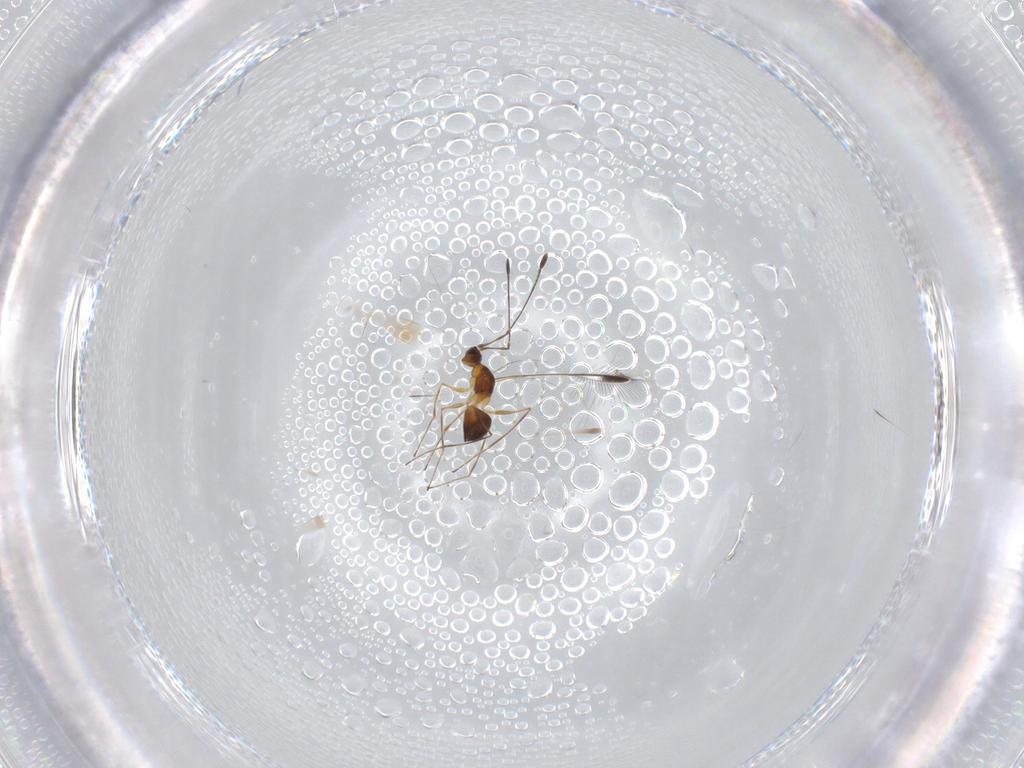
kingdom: Animalia
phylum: Arthropoda
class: Insecta
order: Hymenoptera
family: Mymaridae
